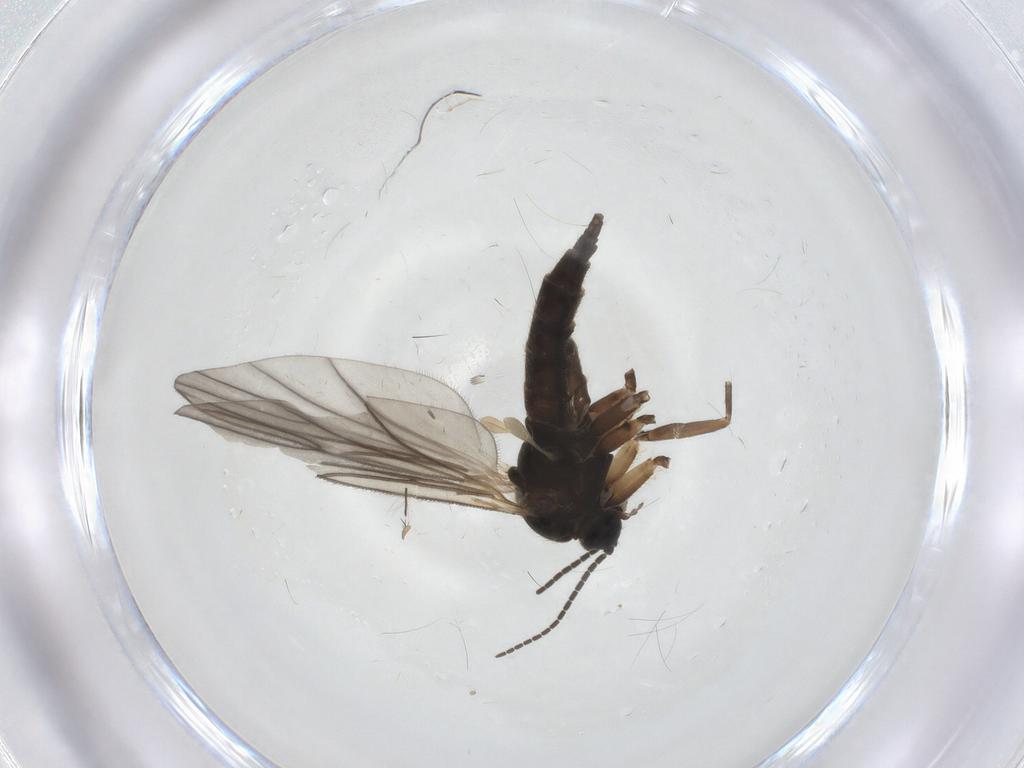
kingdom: Animalia
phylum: Arthropoda
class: Insecta
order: Diptera
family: Sciaridae
